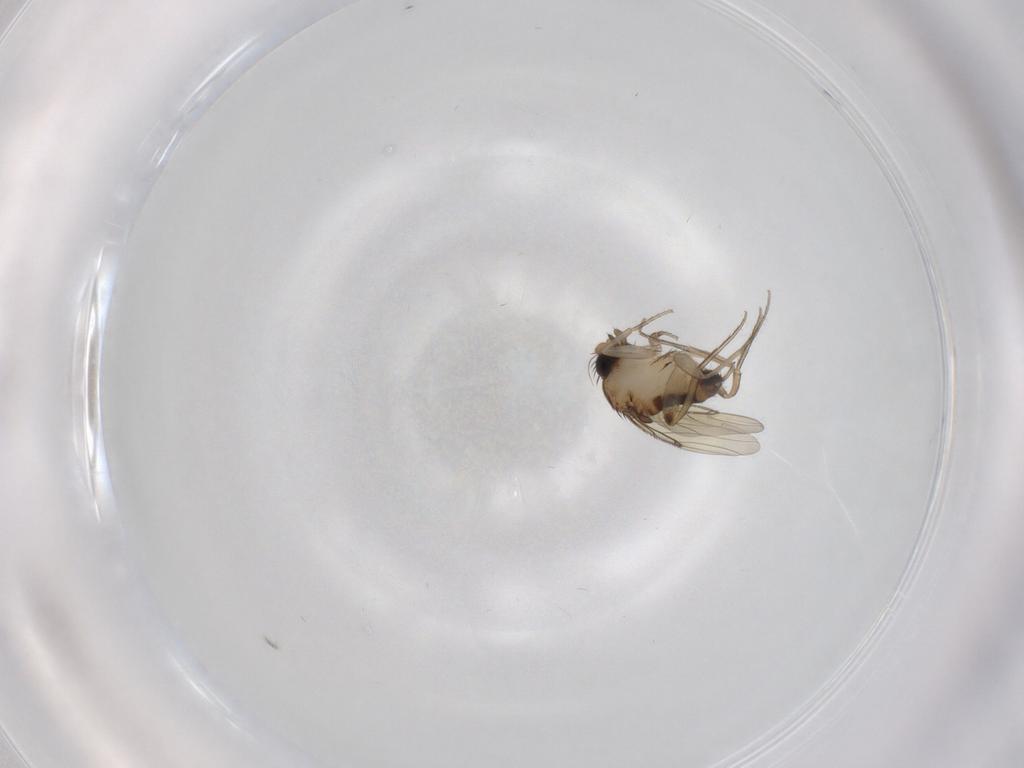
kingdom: Animalia
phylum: Arthropoda
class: Insecta
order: Diptera
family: Phoridae
